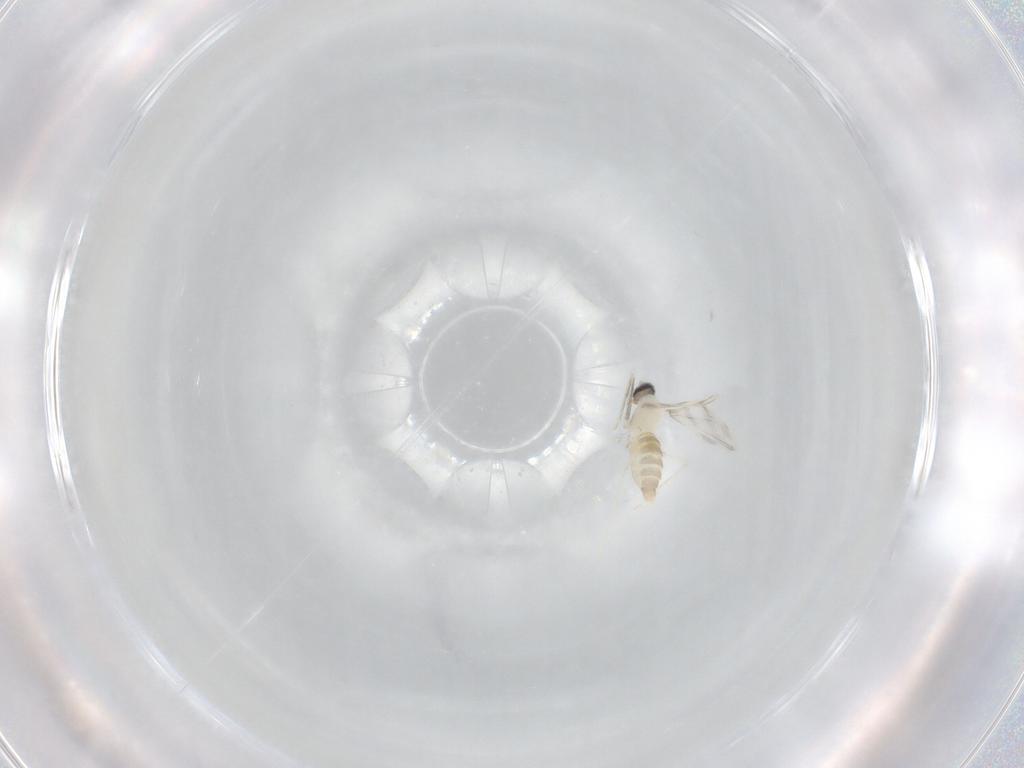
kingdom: Animalia
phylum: Arthropoda
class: Insecta
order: Diptera
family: Cecidomyiidae
